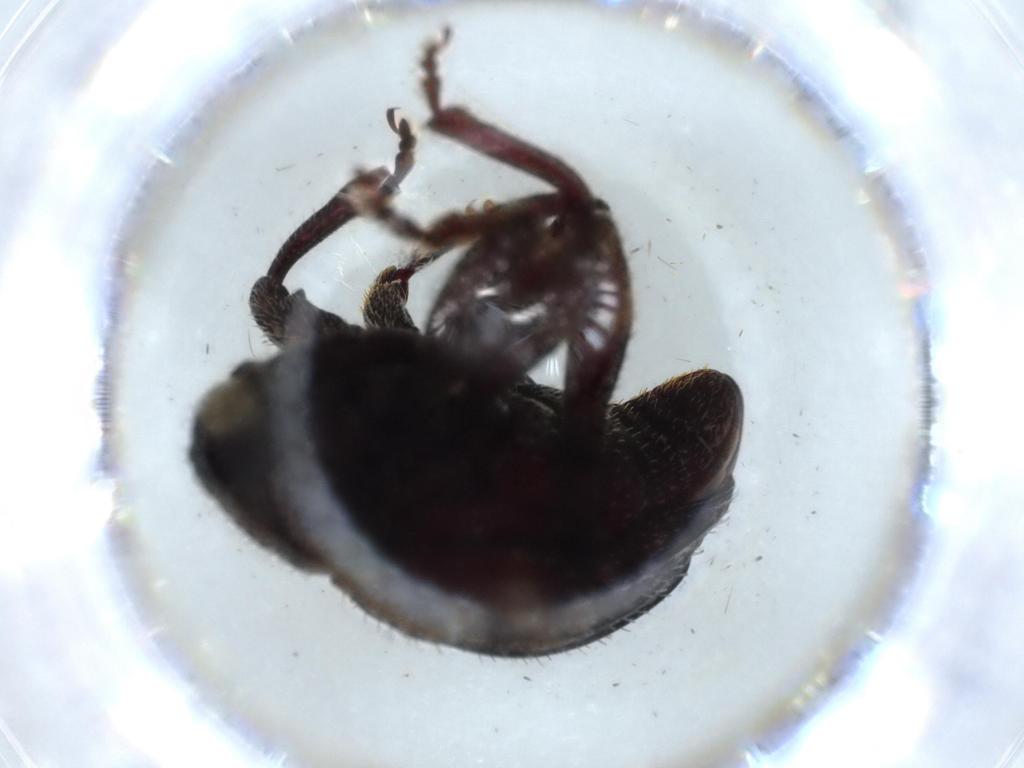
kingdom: Animalia
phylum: Arthropoda
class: Insecta
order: Coleoptera
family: Curculionidae
